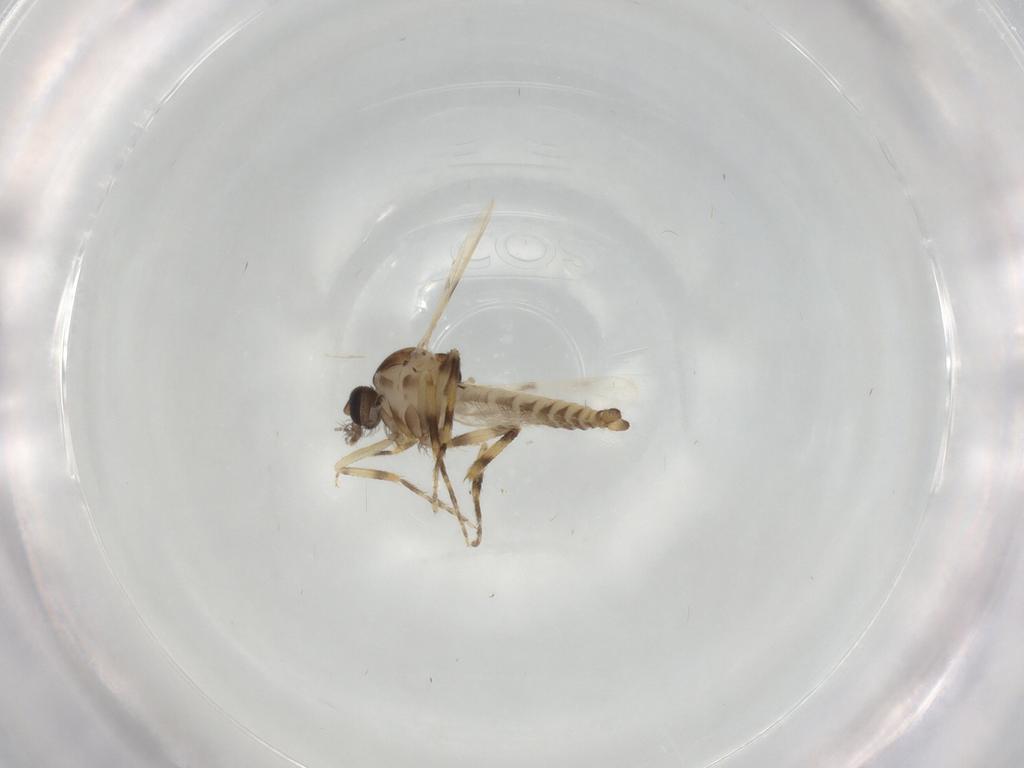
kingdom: Animalia
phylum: Arthropoda
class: Insecta
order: Diptera
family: Ceratopogonidae
